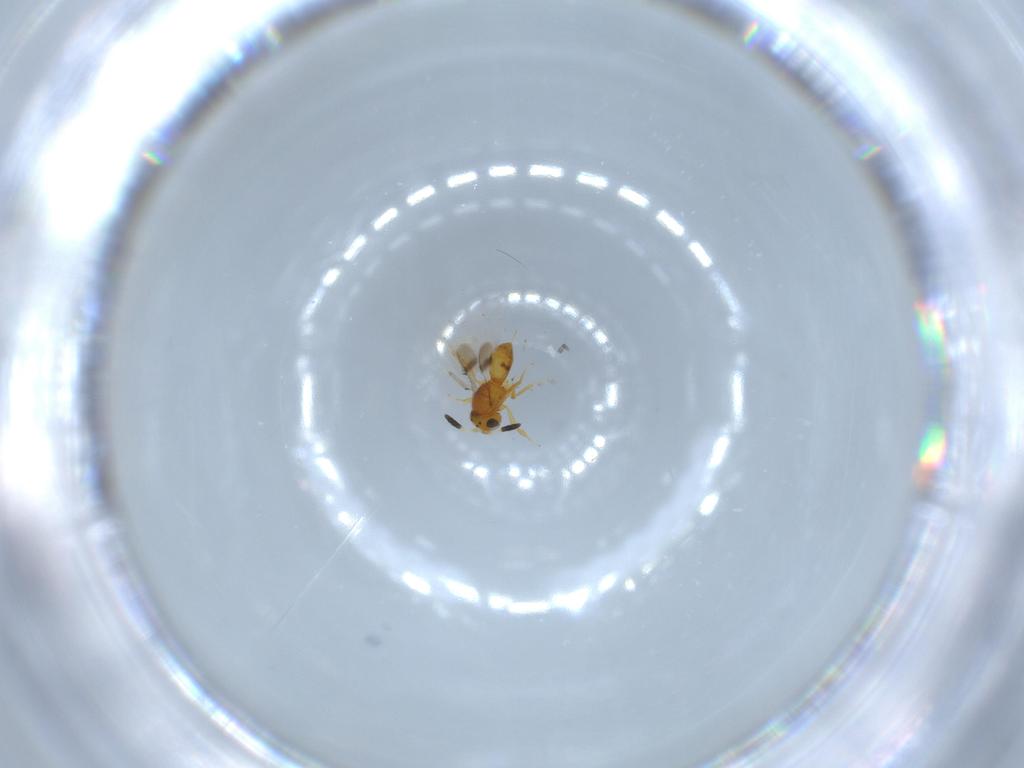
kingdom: Animalia
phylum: Arthropoda
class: Insecta
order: Hymenoptera
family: Scelionidae
